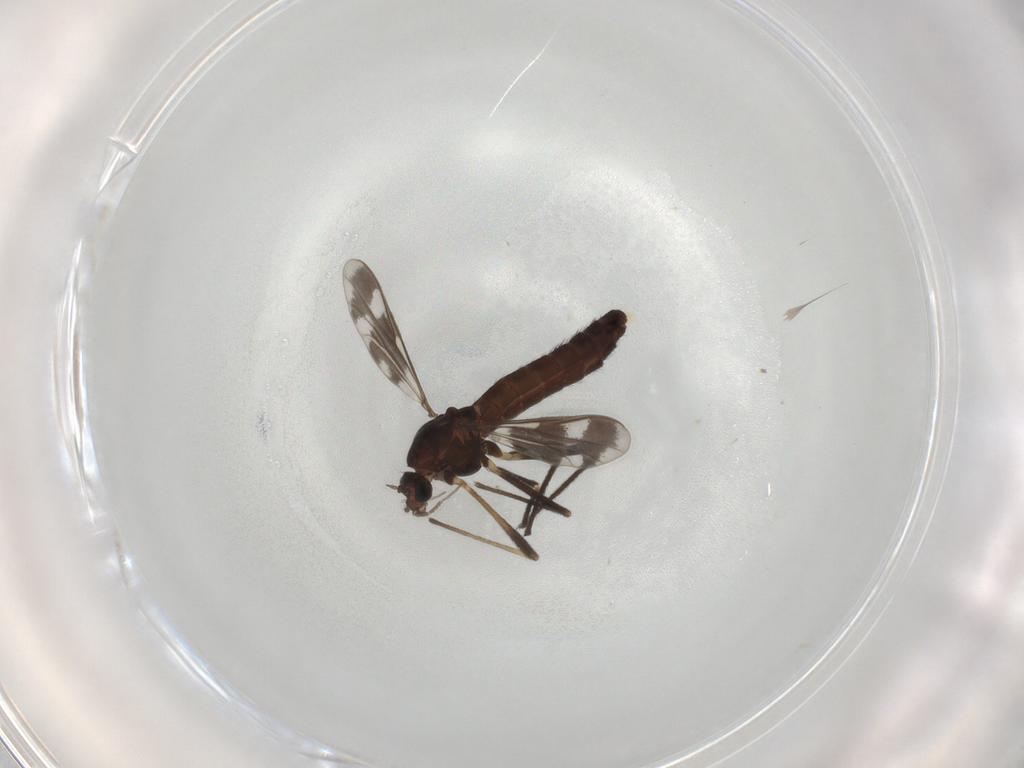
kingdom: Animalia
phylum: Arthropoda
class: Insecta
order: Diptera
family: Chironomidae
